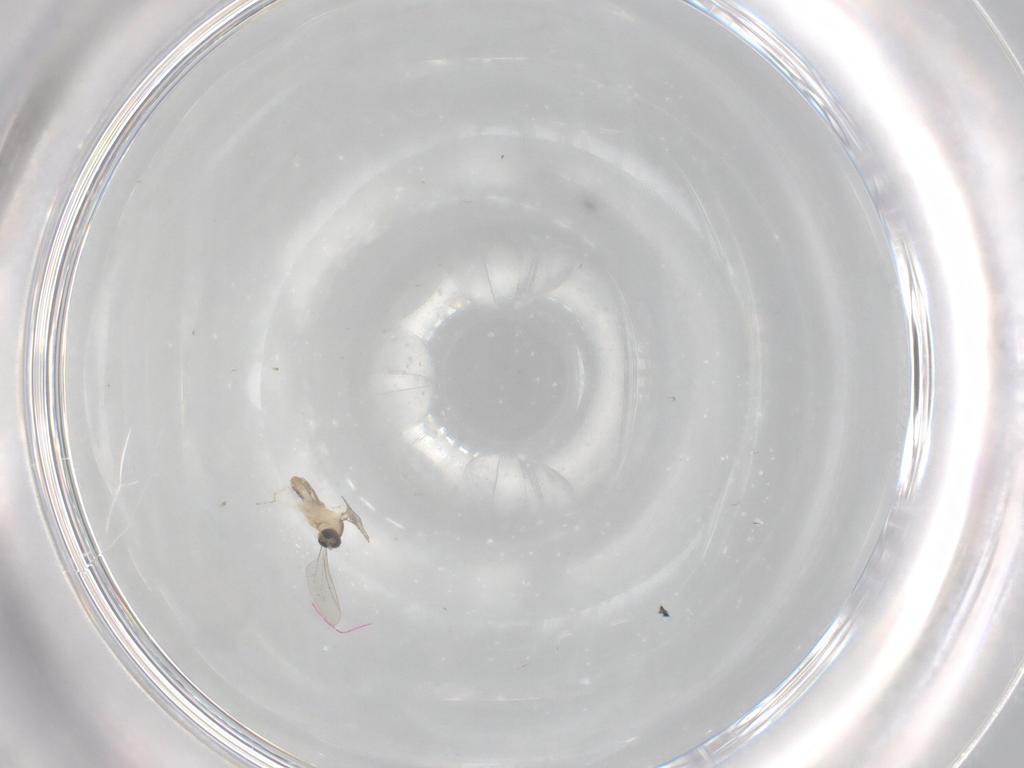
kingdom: Animalia
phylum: Arthropoda
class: Insecta
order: Diptera
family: Cecidomyiidae
